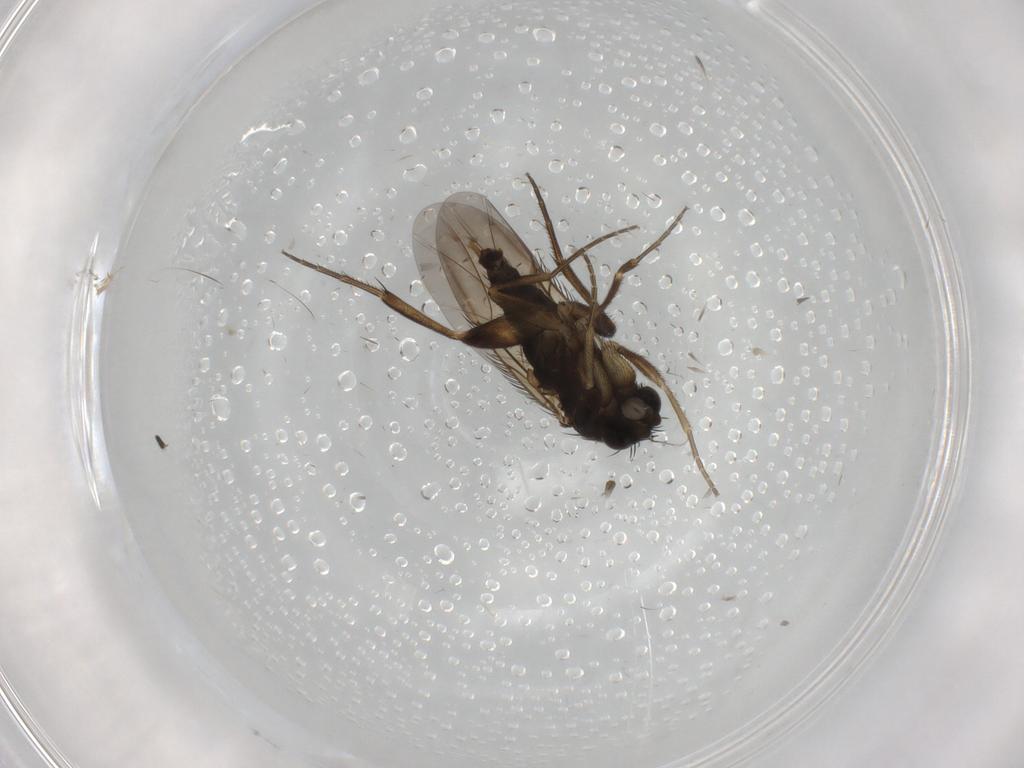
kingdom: Animalia
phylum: Arthropoda
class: Insecta
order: Diptera
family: Phoridae
